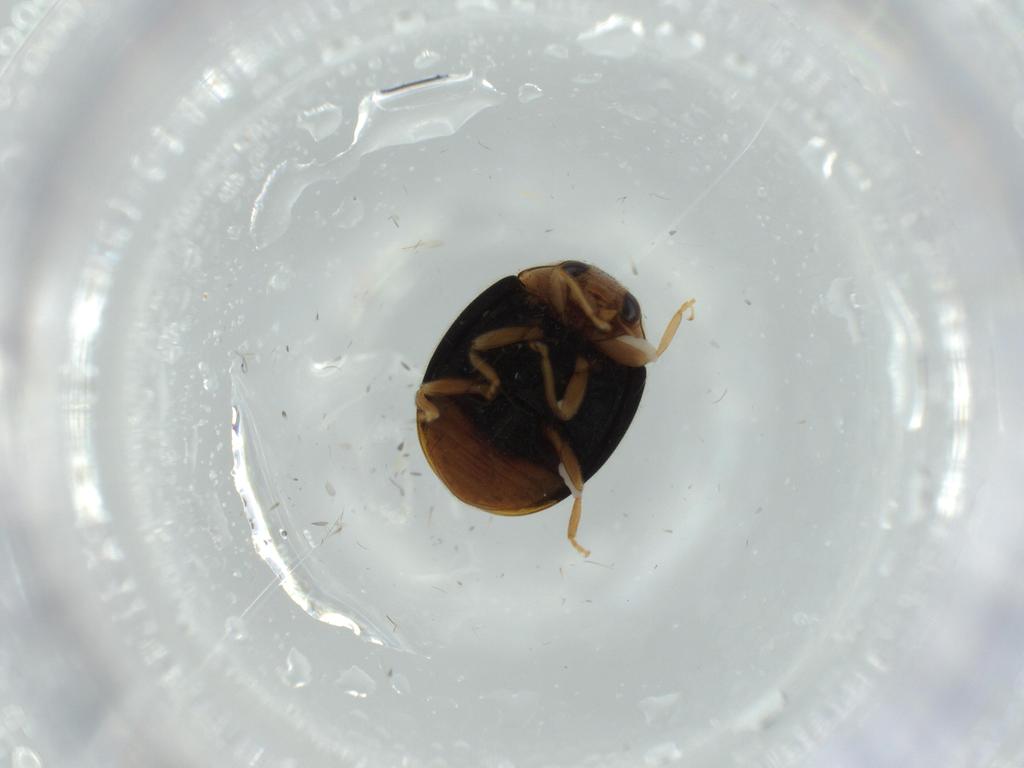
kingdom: Animalia
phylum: Arthropoda
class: Insecta
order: Coleoptera
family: Coccinellidae
